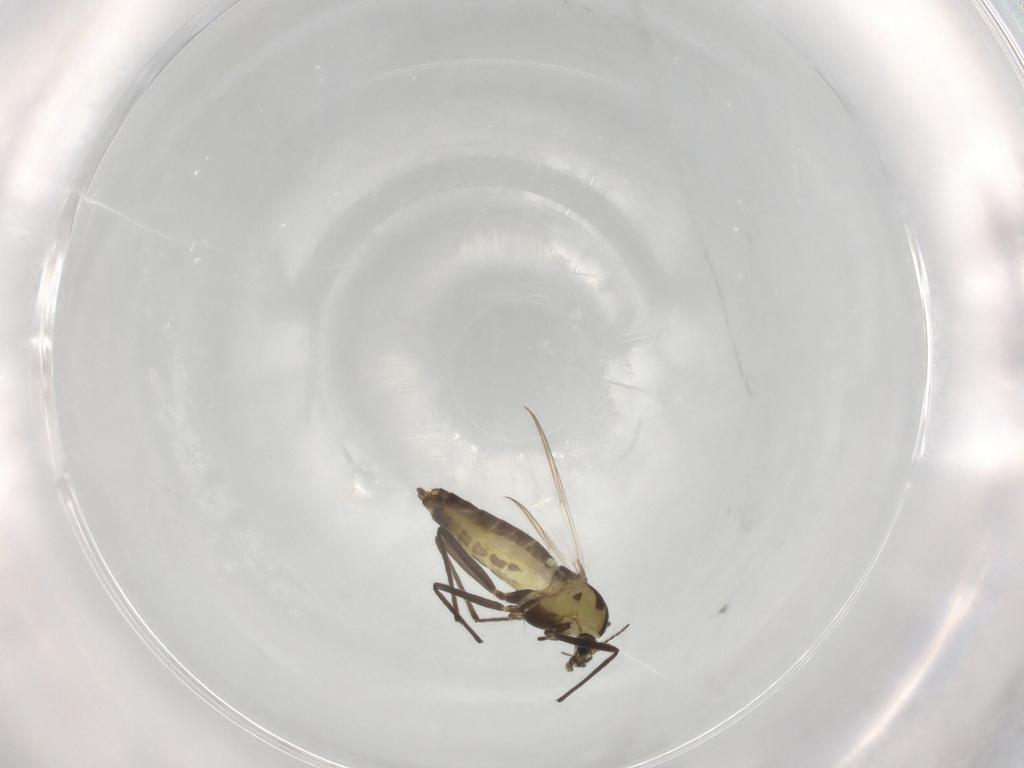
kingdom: Animalia
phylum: Arthropoda
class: Insecta
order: Diptera
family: Chironomidae
